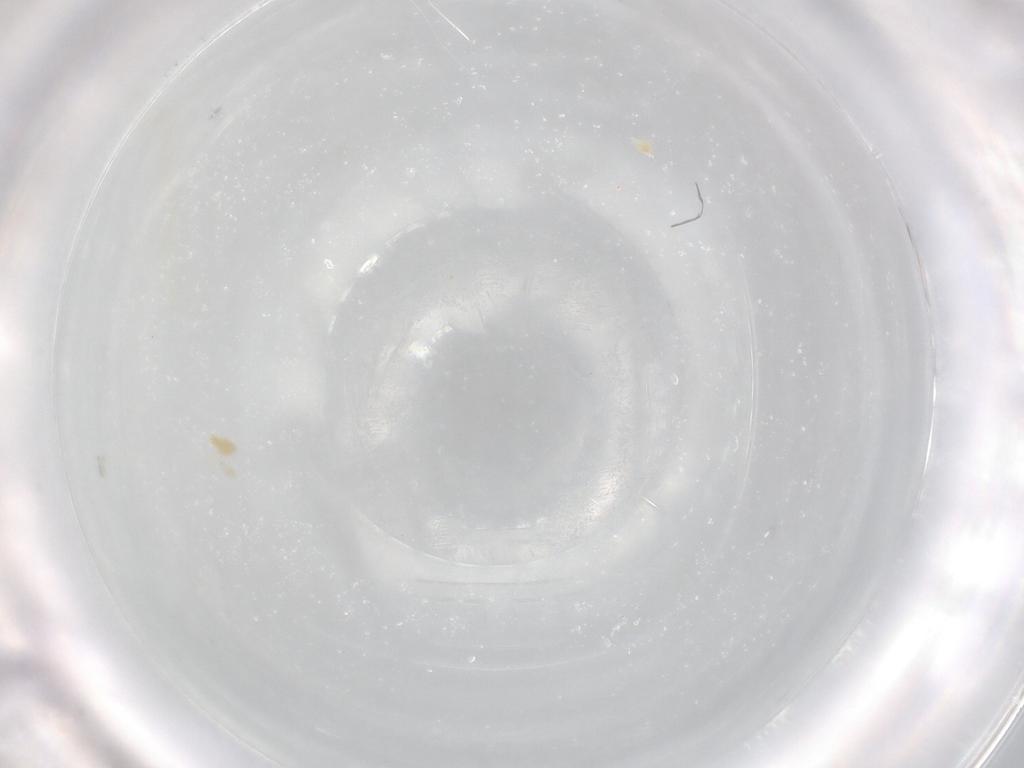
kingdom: Animalia
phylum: Arthropoda
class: Arachnida
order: Trombidiformes
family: Eupodidae
